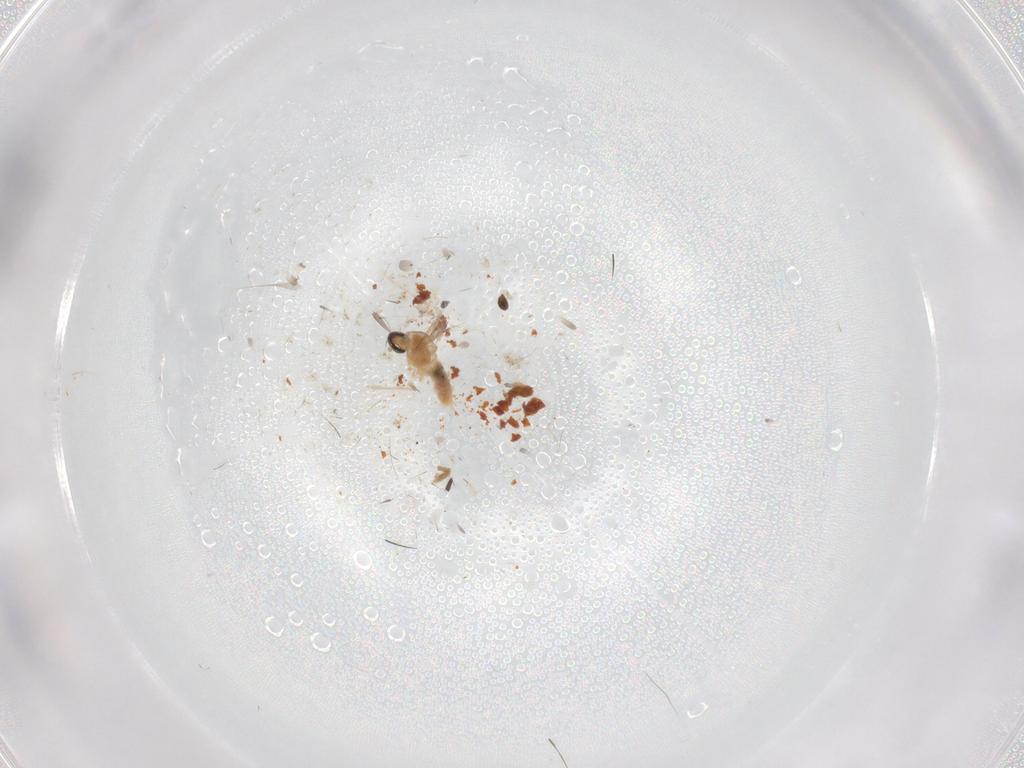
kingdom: Animalia
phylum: Arthropoda
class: Insecta
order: Diptera
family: Cecidomyiidae
